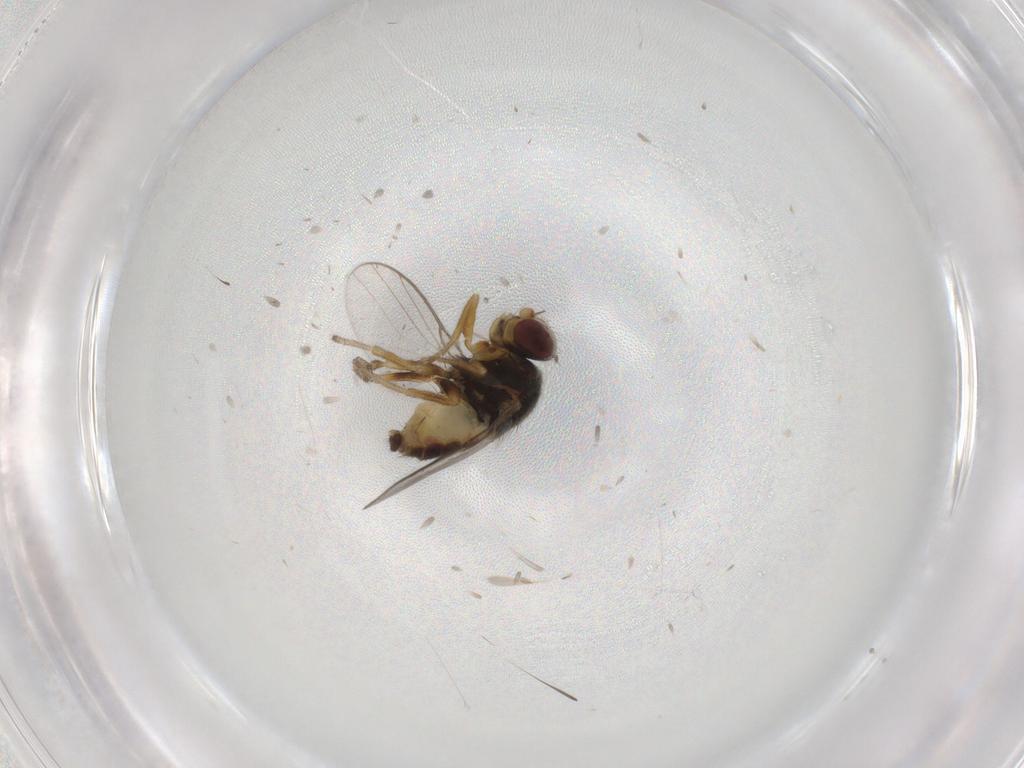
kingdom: Animalia
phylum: Arthropoda
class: Insecta
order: Diptera
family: Chloropidae
